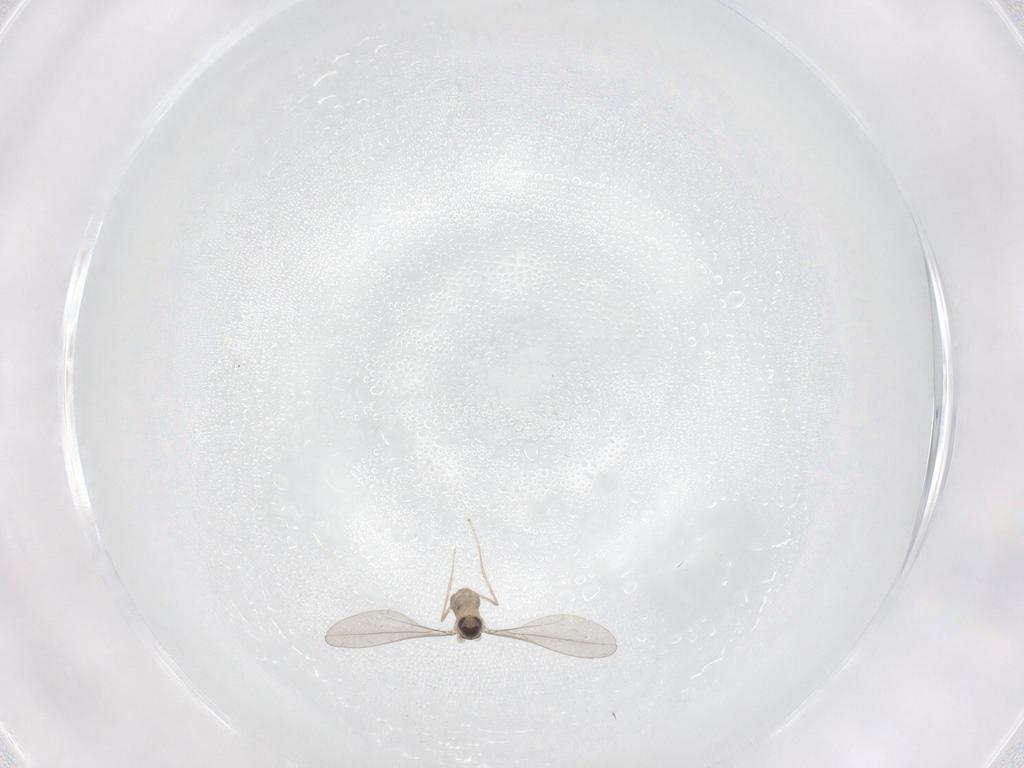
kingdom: Animalia
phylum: Arthropoda
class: Insecta
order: Diptera
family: Cecidomyiidae
